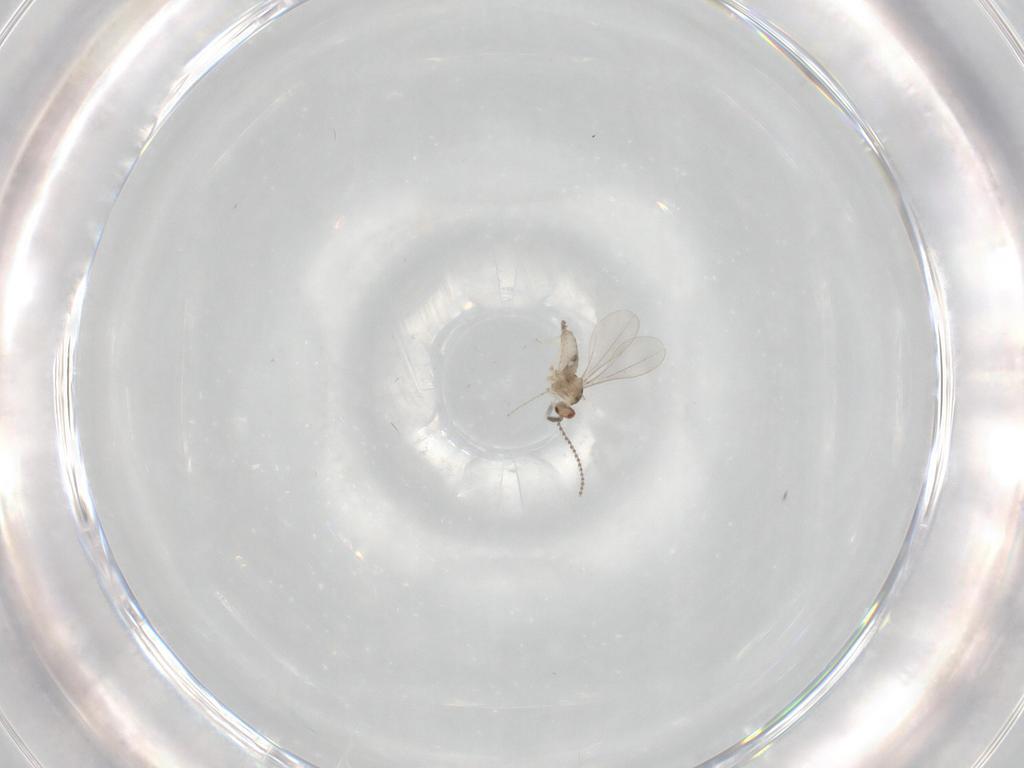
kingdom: Animalia
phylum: Arthropoda
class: Insecta
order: Diptera
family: Cecidomyiidae
